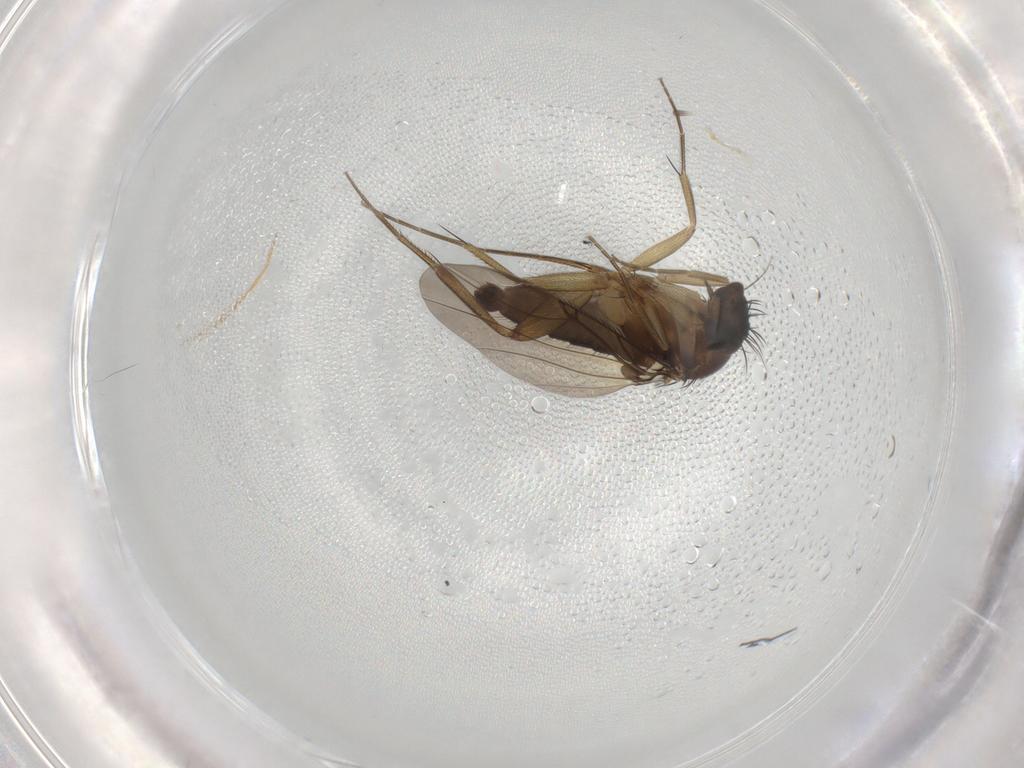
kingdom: Animalia
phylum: Arthropoda
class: Insecta
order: Diptera
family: Phoridae
